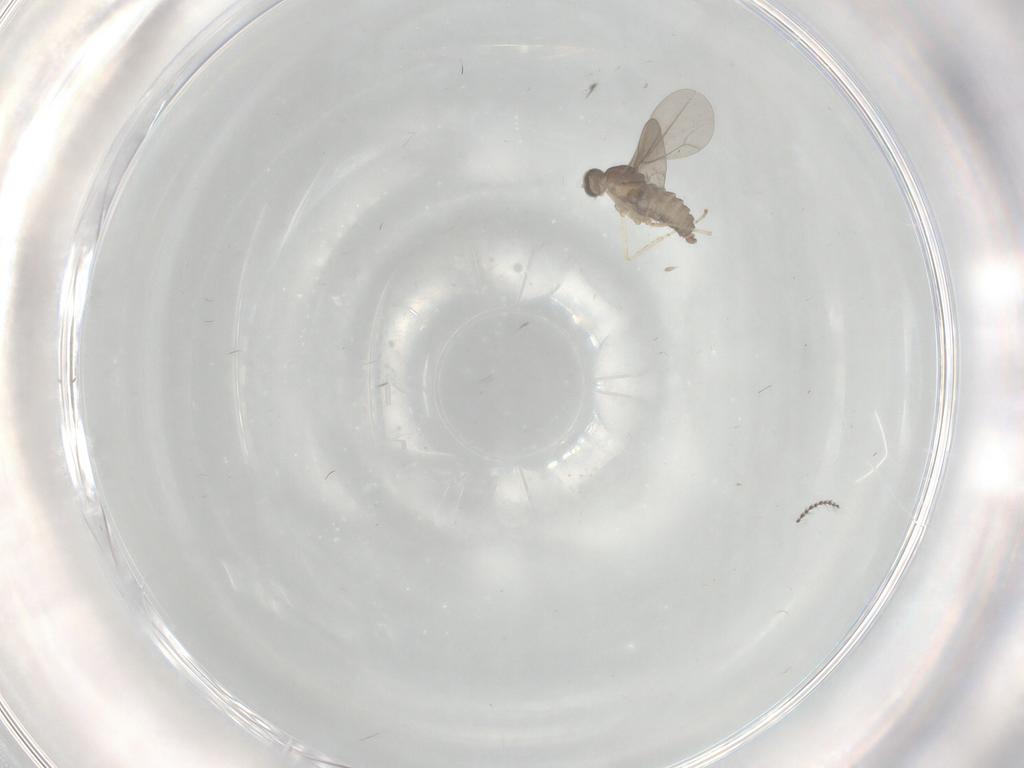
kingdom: Animalia
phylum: Arthropoda
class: Insecta
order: Diptera
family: Cecidomyiidae
